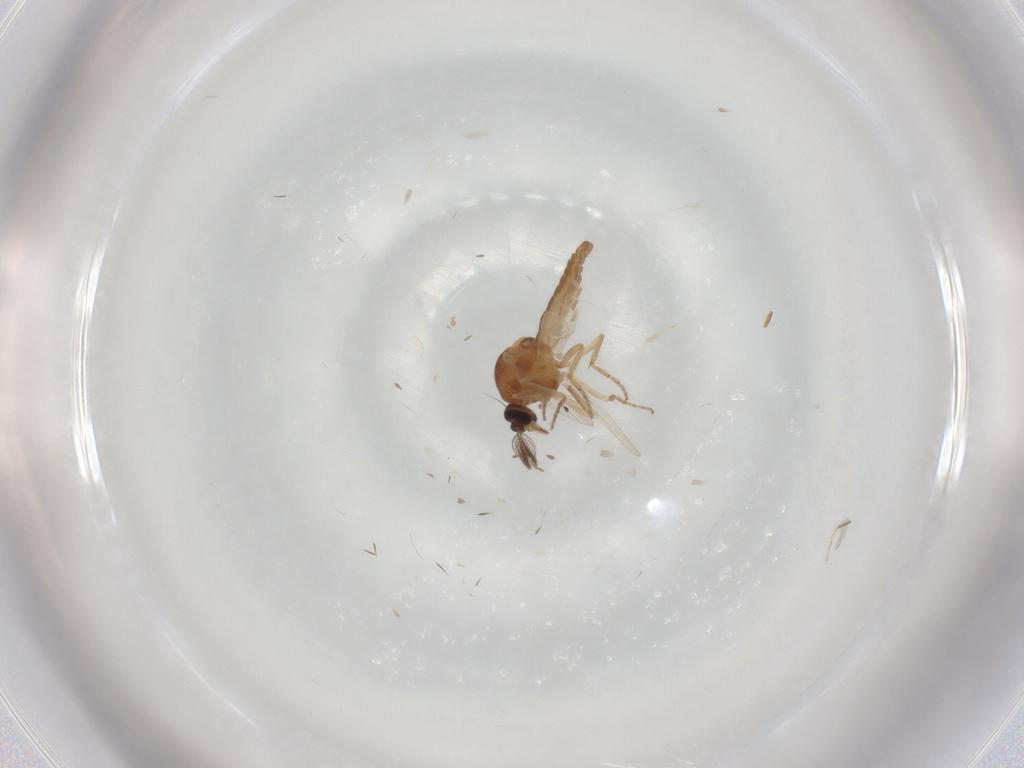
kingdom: Animalia
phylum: Arthropoda
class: Insecta
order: Diptera
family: Ceratopogonidae
